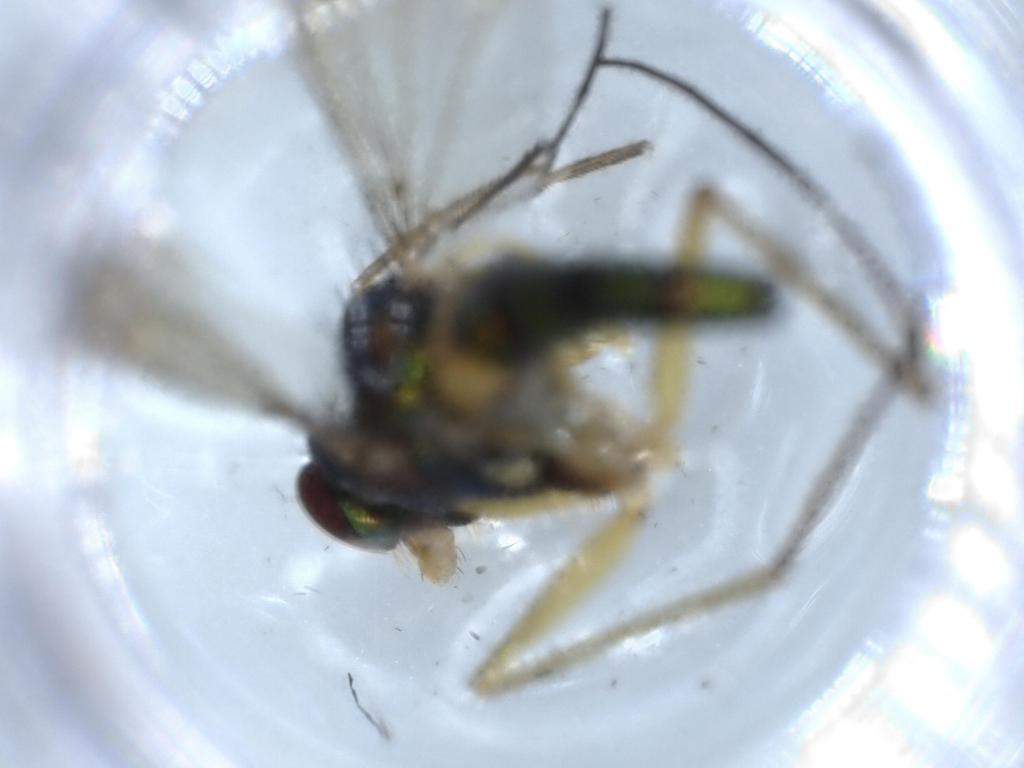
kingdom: Animalia
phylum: Arthropoda
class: Insecta
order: Diptera
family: Dolichopodidae
